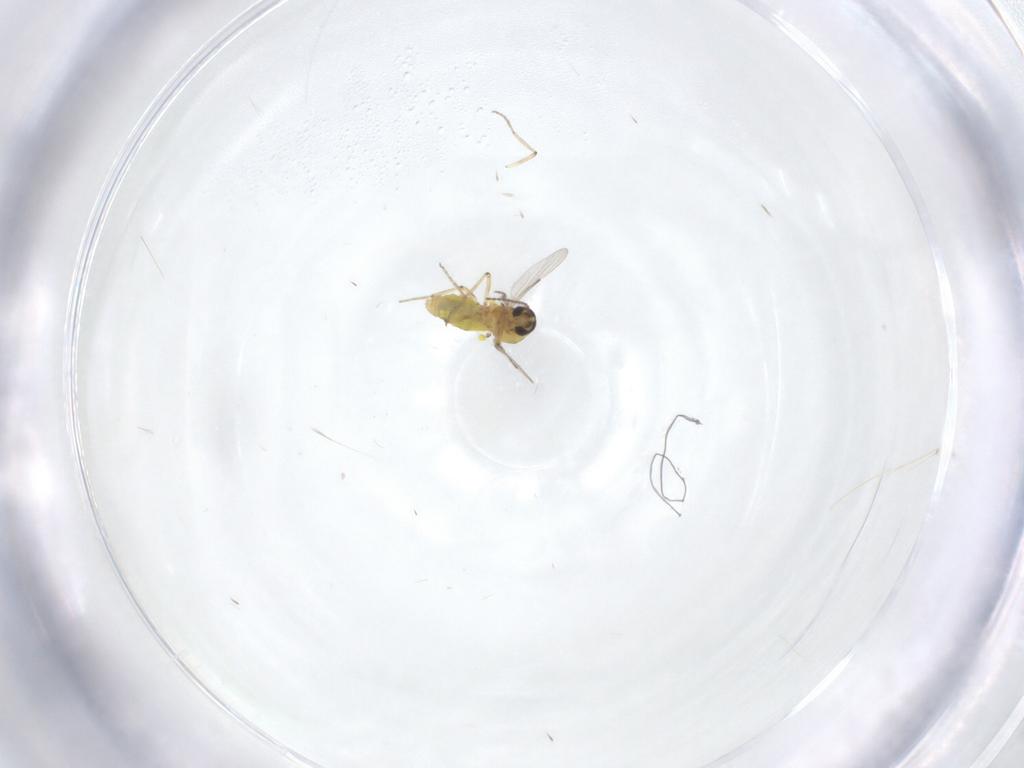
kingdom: Animalia
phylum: Arthropoda
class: Insecta
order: Diptera
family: Ceratopogonidae
